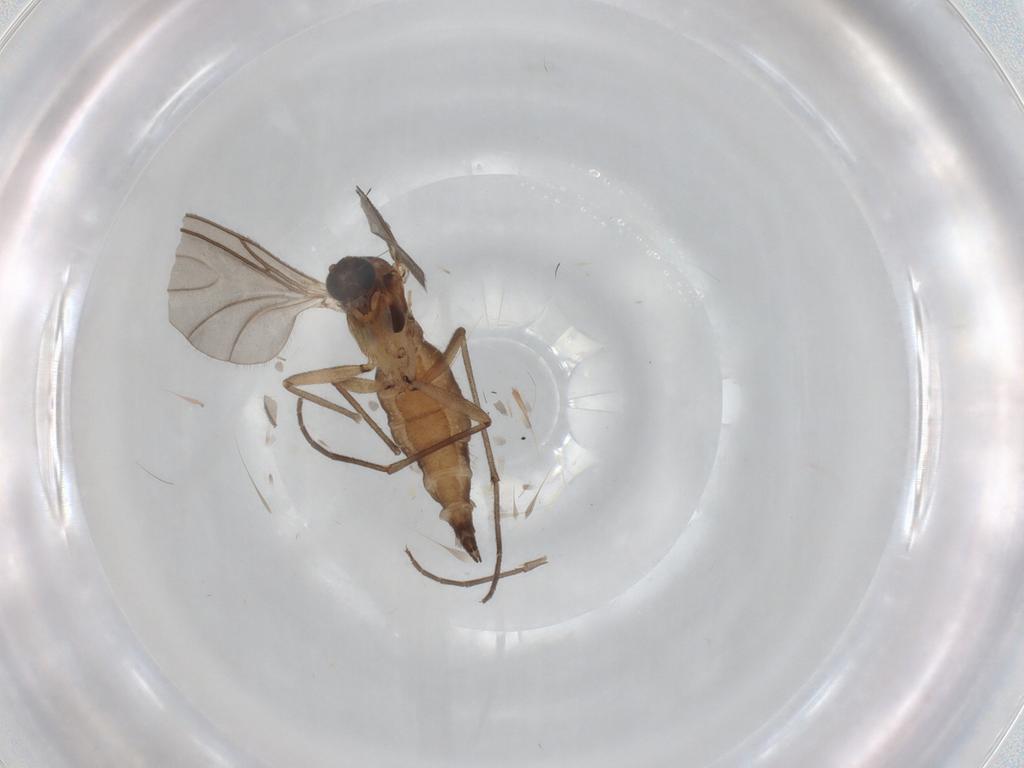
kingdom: Animalia
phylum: Arthropoda
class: Insecta
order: Diptera
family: Sciaridae
